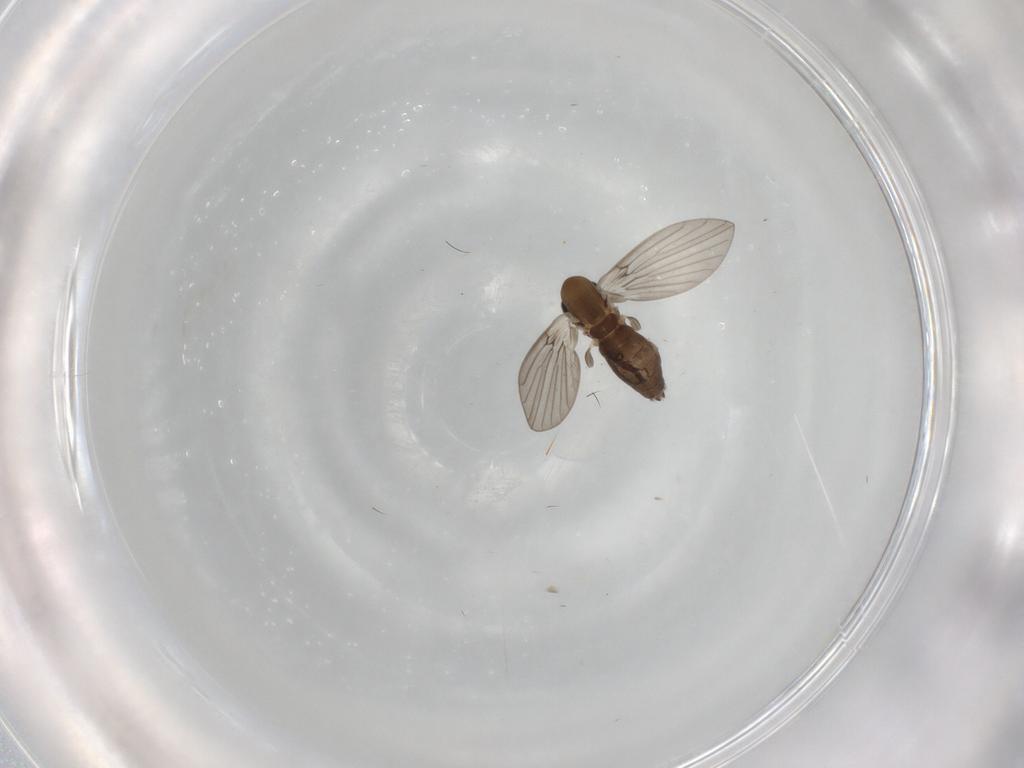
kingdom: Animalia
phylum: Arthropoda
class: Insecta
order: Diptera
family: Psychodidae
